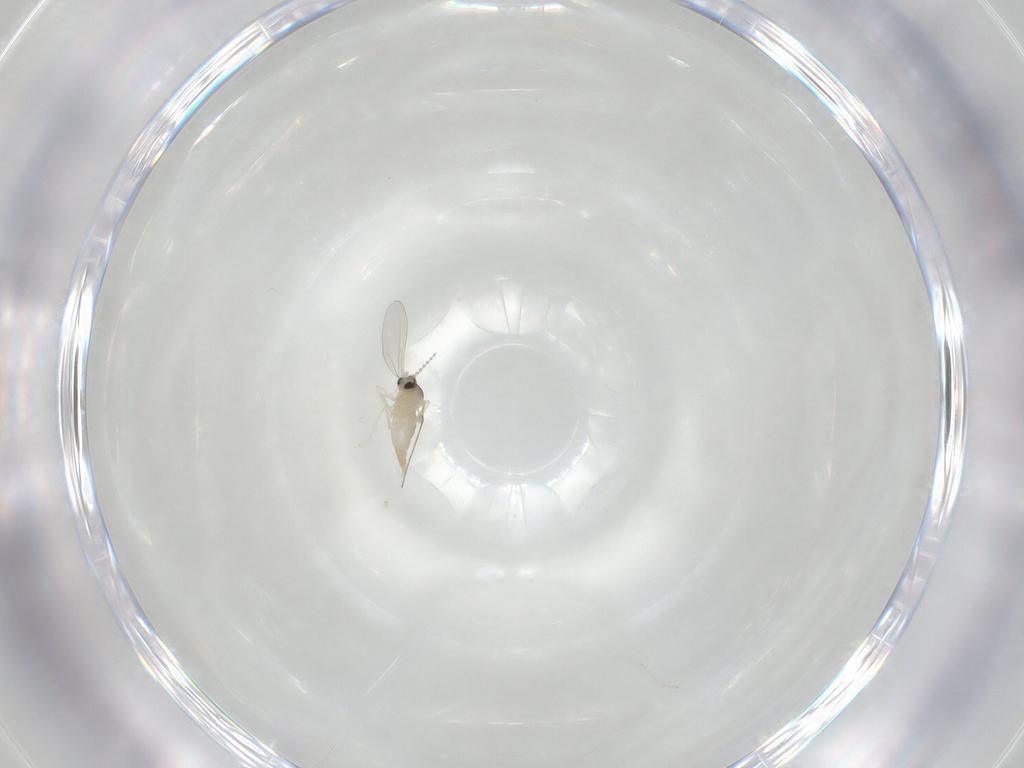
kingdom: Animalia
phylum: Arthropoda
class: Insecta
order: Diptera
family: Cecidomyiidae
